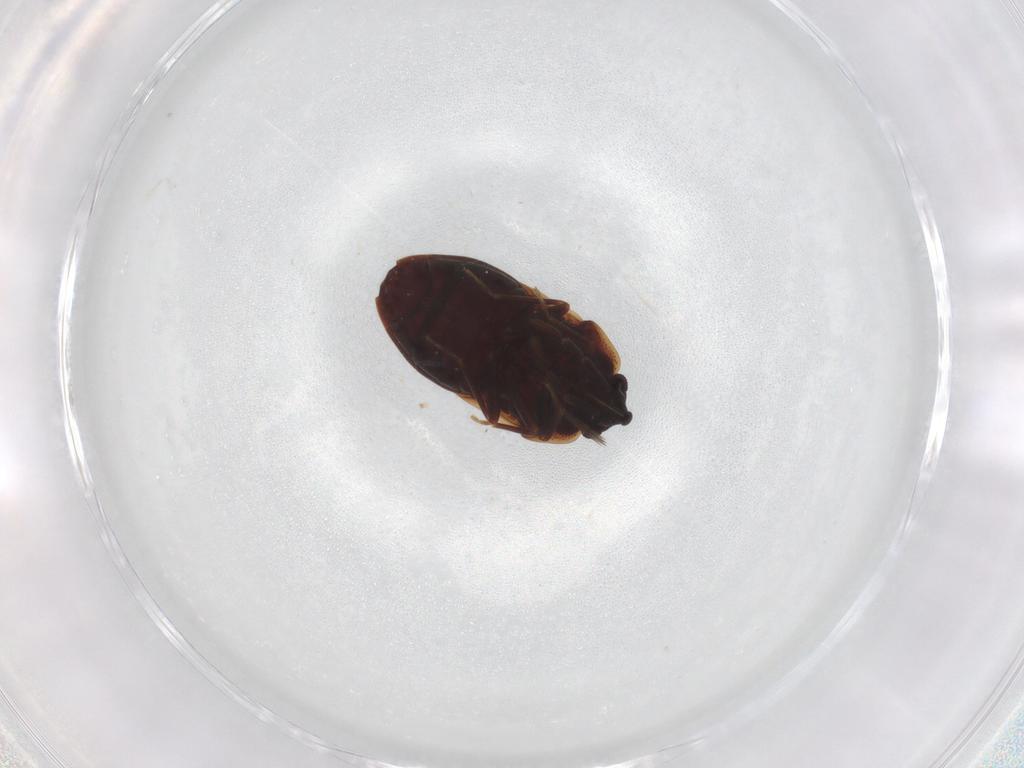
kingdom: Animalia
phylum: Arthropoda
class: Insecta
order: Hemiptera
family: Rhyparochromidae
